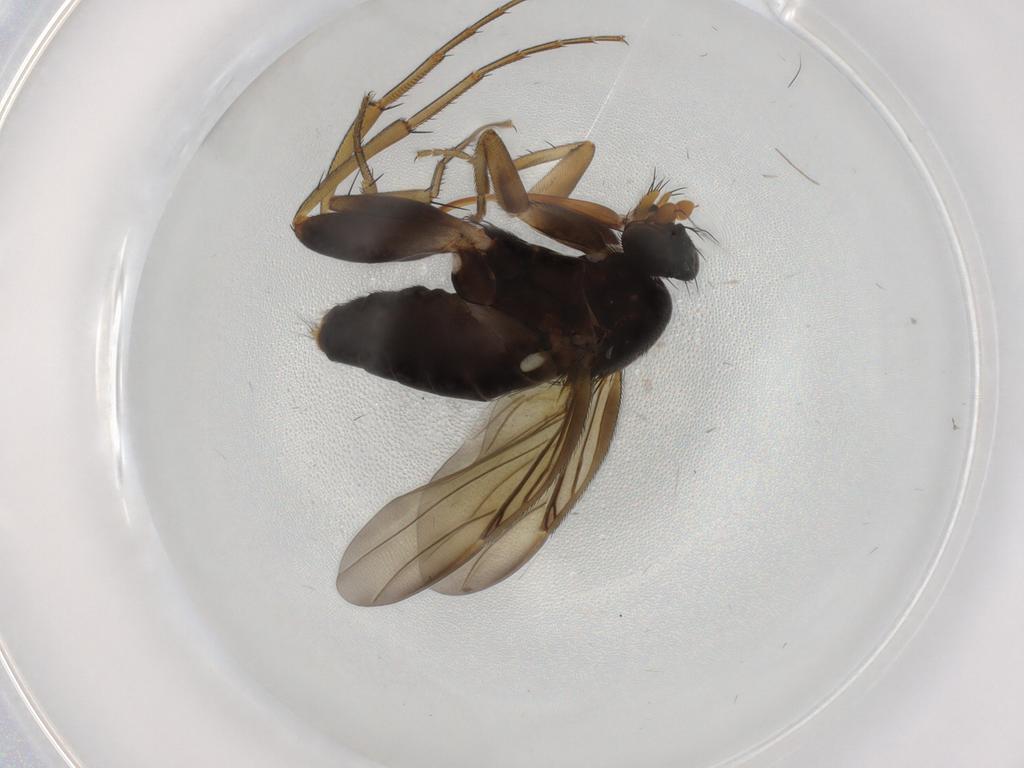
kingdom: Animalia
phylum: Arthropoda
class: Insecta
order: Diptera
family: Phoridae
